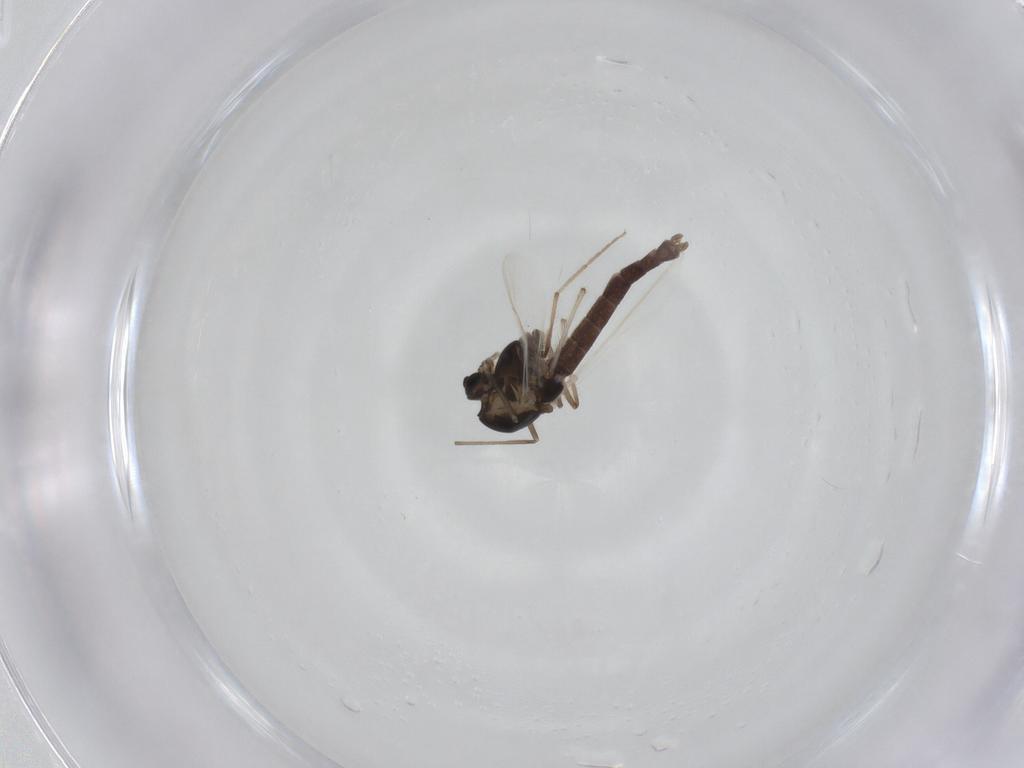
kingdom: Animalia
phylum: Arthropoda
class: Insecta
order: Diptera
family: Chironomidae
